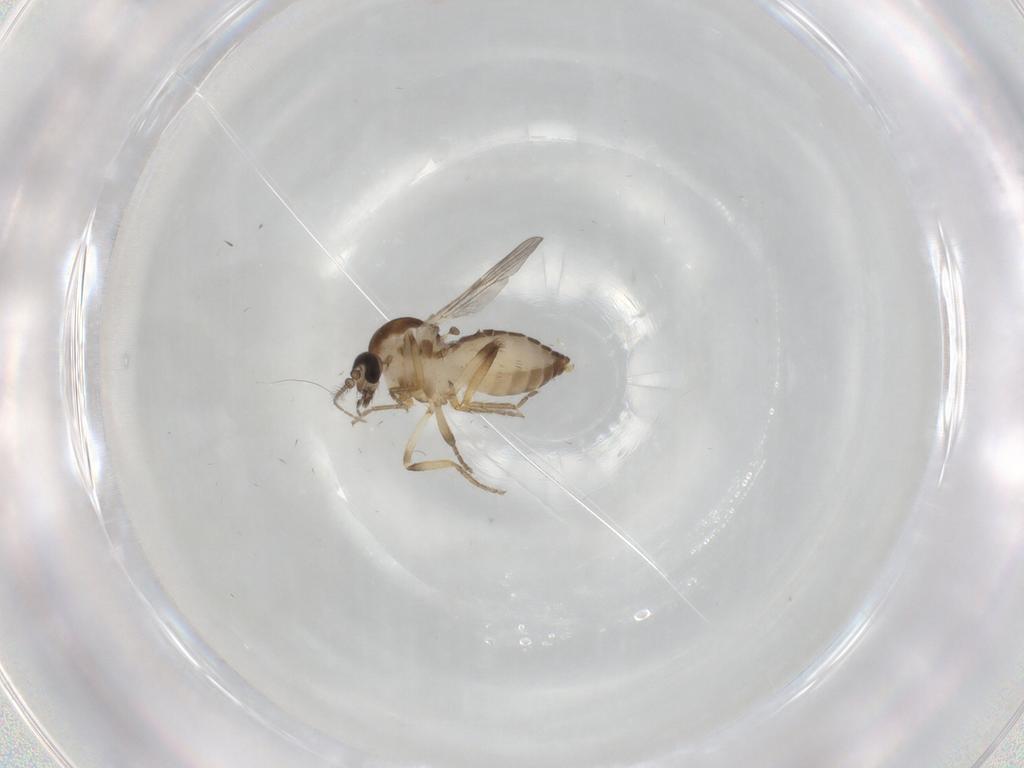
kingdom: Animalia
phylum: Arthropoda
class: Insecta
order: Diptera
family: Ceratopogonidae
